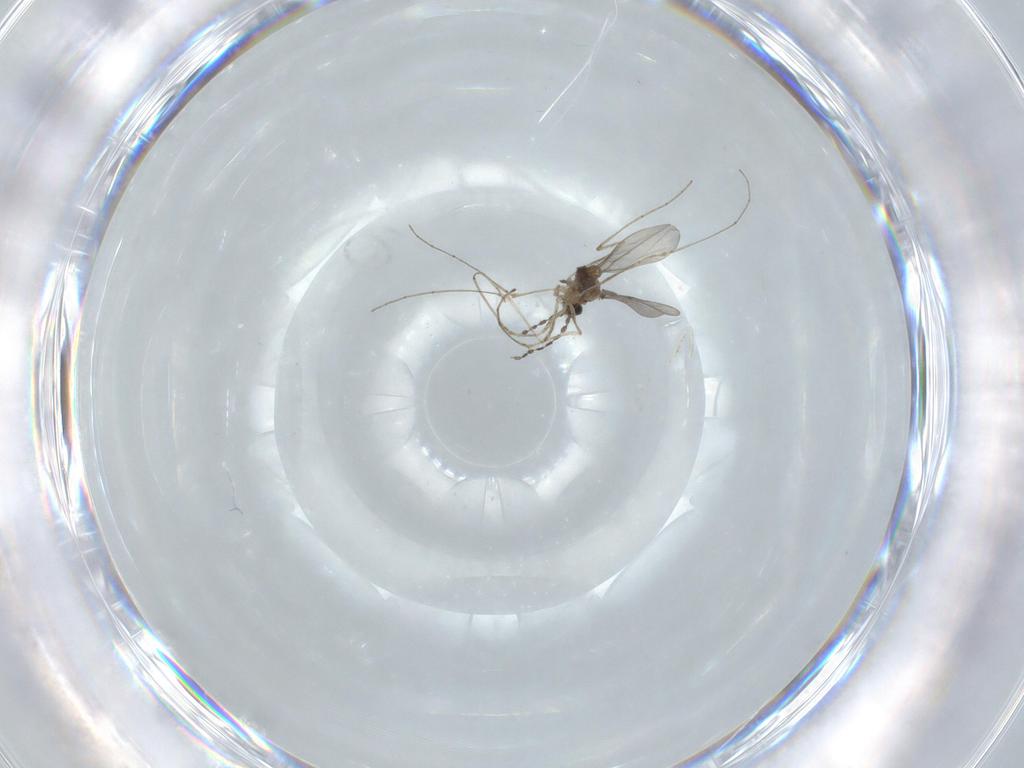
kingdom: Animalia
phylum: Arthropoda
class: Insecta
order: Diptera
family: Cecidomyiidae
